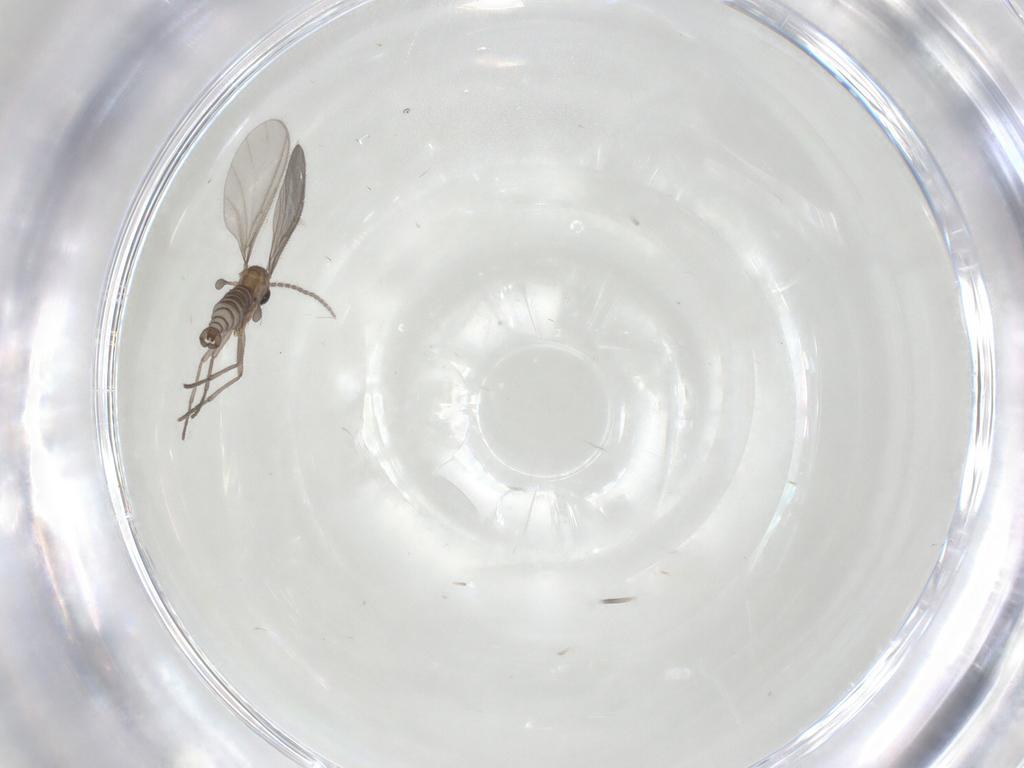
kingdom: Animalia
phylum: Arthropoda
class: Insecta
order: Diptera
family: Sciaridae
